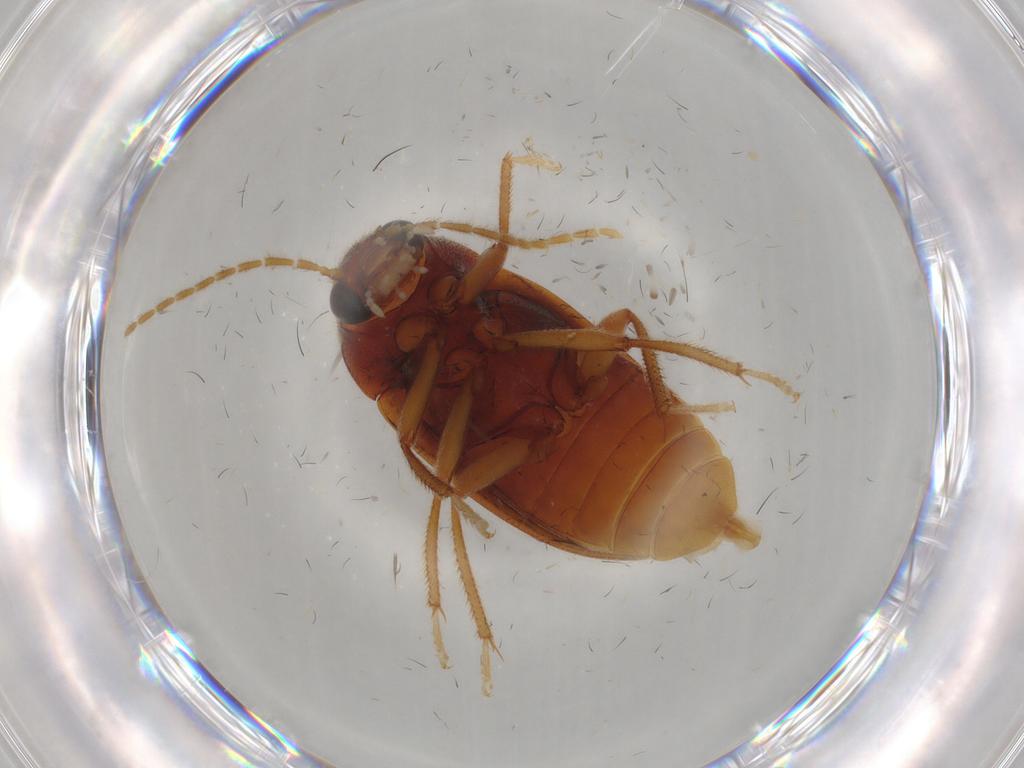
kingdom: Animalia
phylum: Arthropoda
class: Insecta
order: Coleoptera
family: Ptilodactylidae
